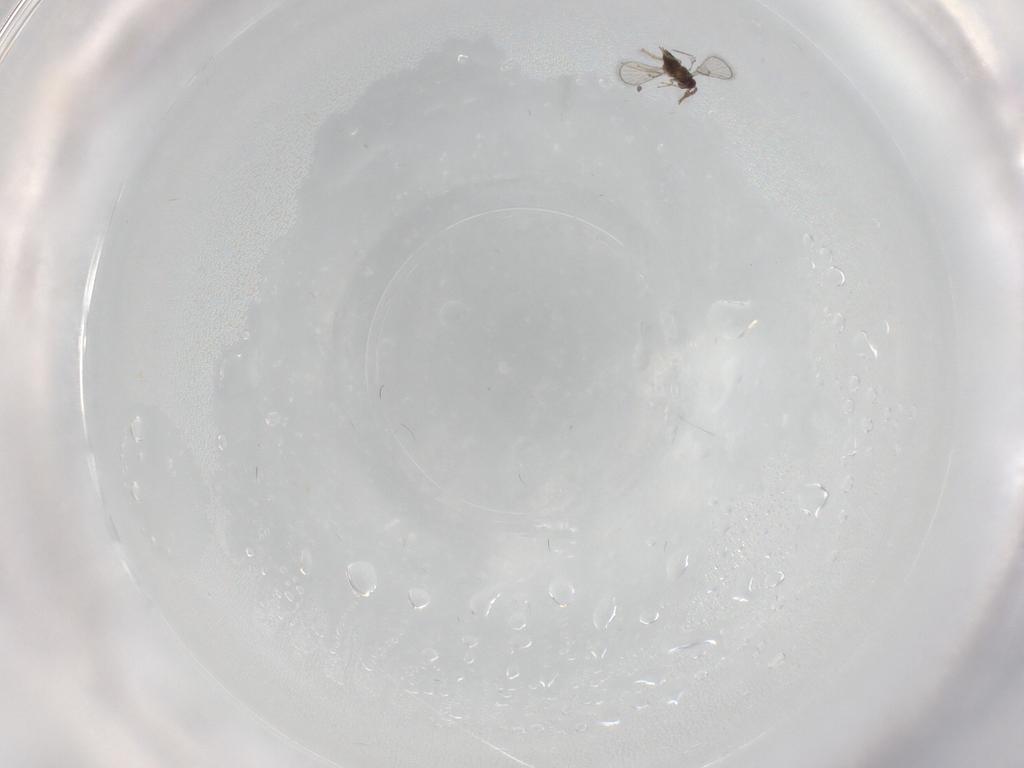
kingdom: Animalia
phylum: Arthropoda
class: Insecta
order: Hymenoptera
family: Trichogrammatidae
